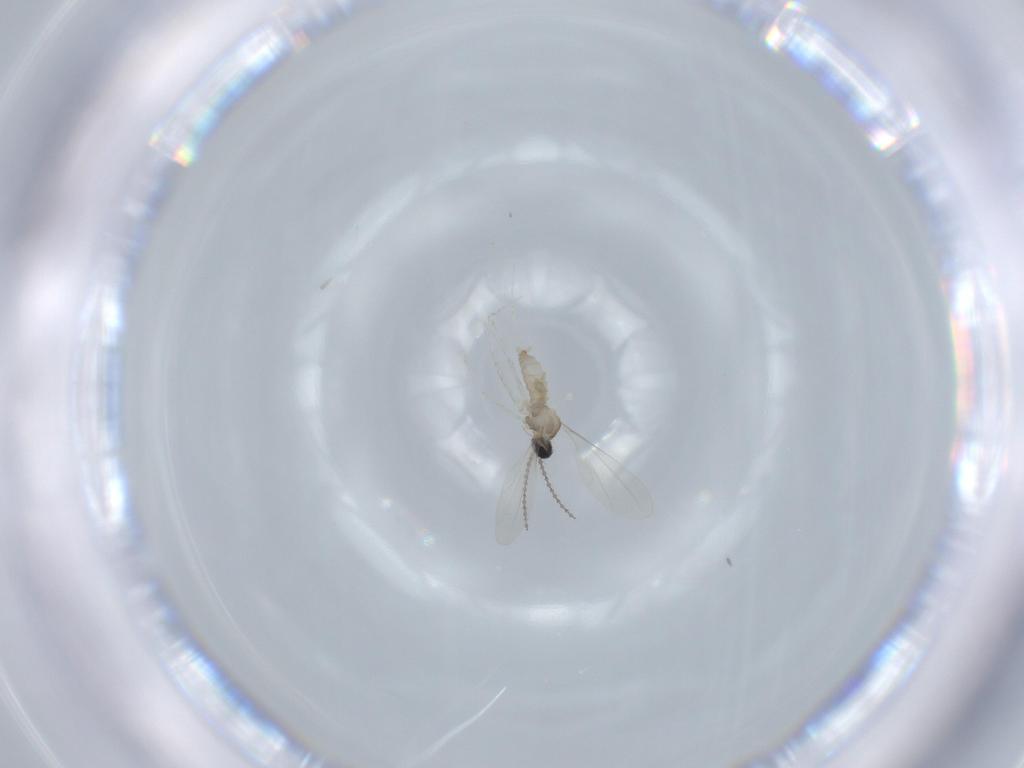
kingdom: Animalia
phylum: Arthropoda
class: Insecta
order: Diptera
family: Cecidomyiidae
